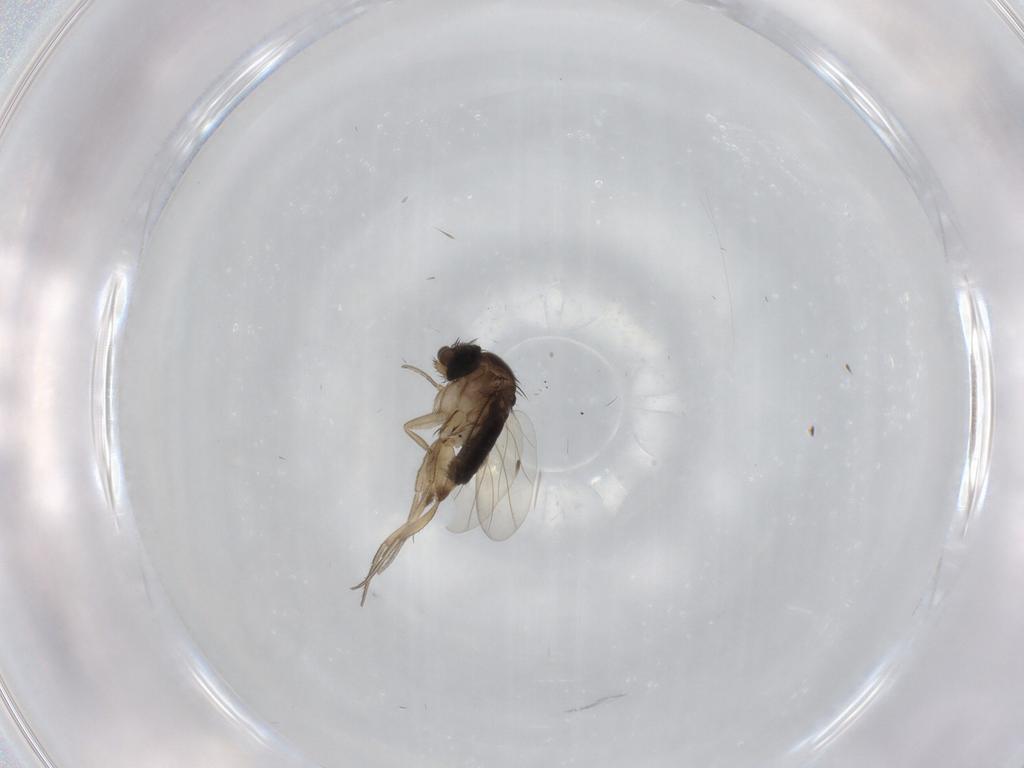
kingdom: Animalia
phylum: Arthropoda
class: Insecta
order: Diptera
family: Phoridae
